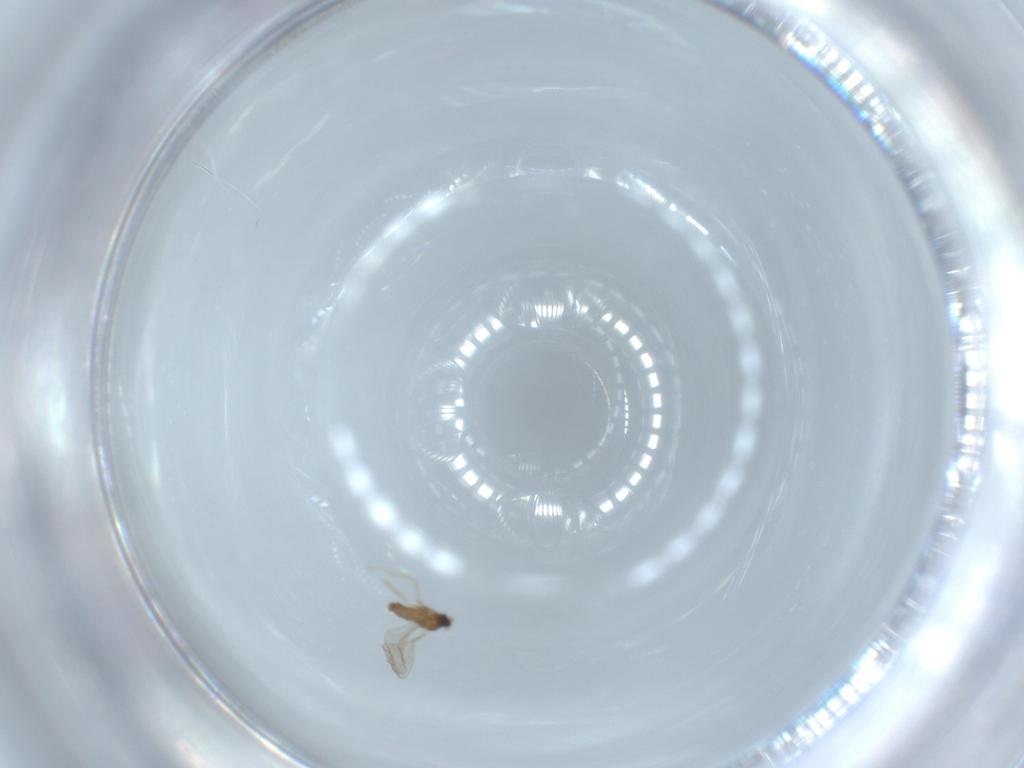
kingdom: Animalia
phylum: Arthropoda
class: Insecta
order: Diptera
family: Cecidomyiidae
